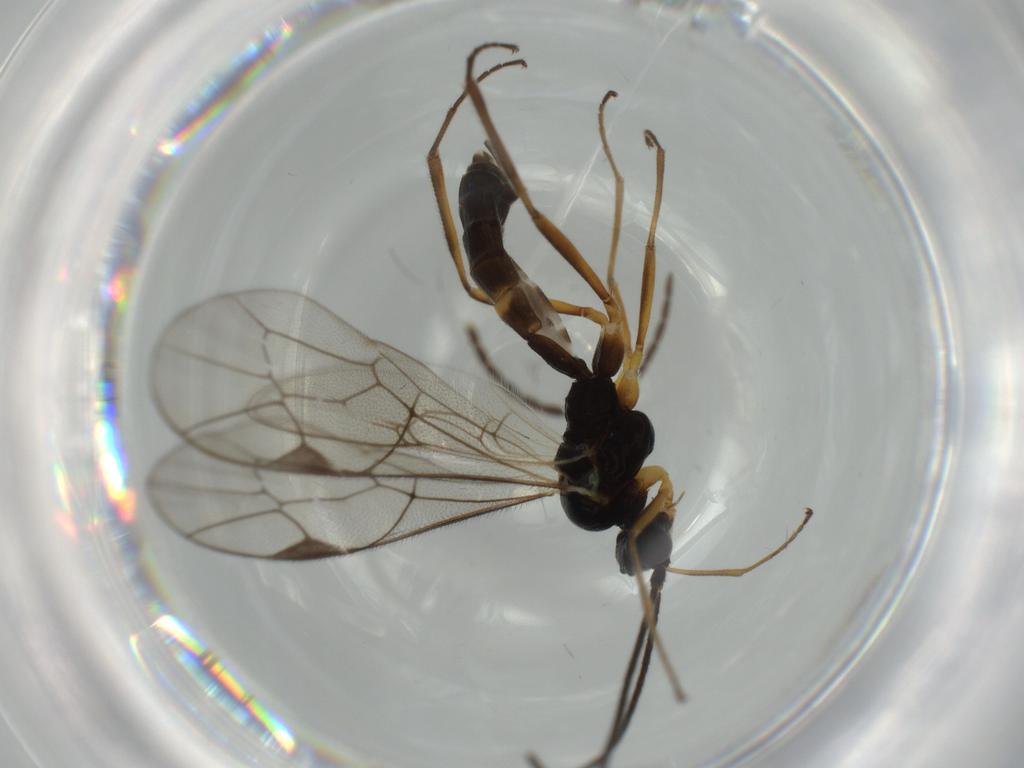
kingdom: Animalia
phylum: Arthropoda
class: Insecta
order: Hymenoptera
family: Ichneumonidae
